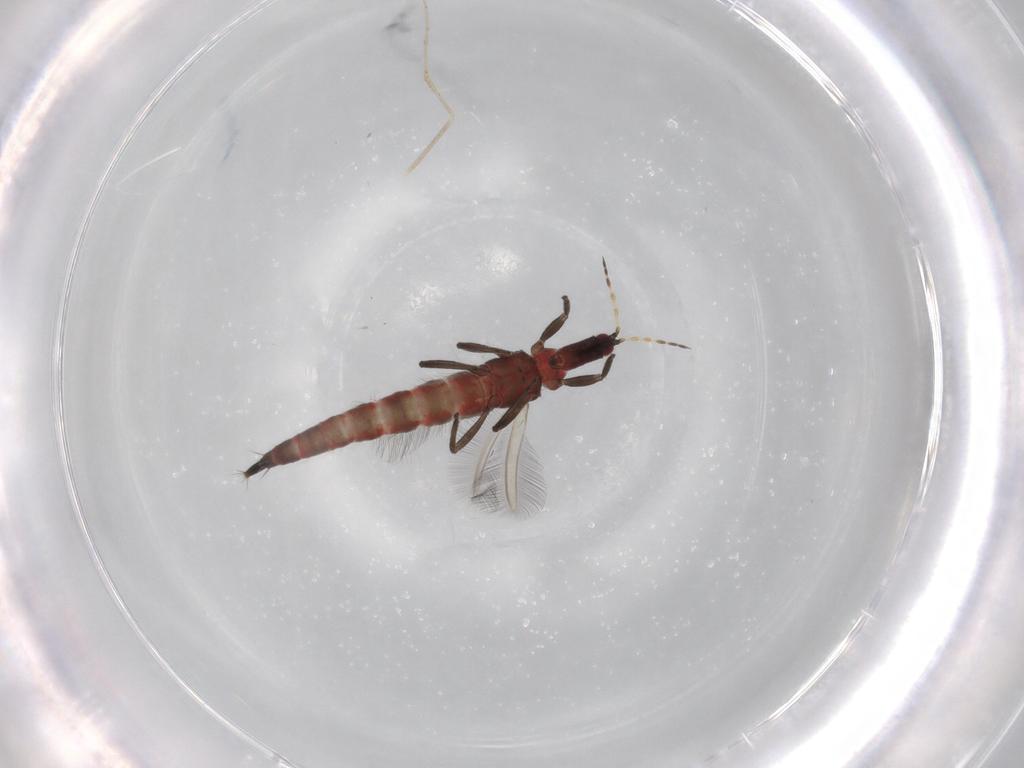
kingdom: Animalia
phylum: Arthropoda
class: Insecta
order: Thysanoptera
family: Phlaeothripidae
